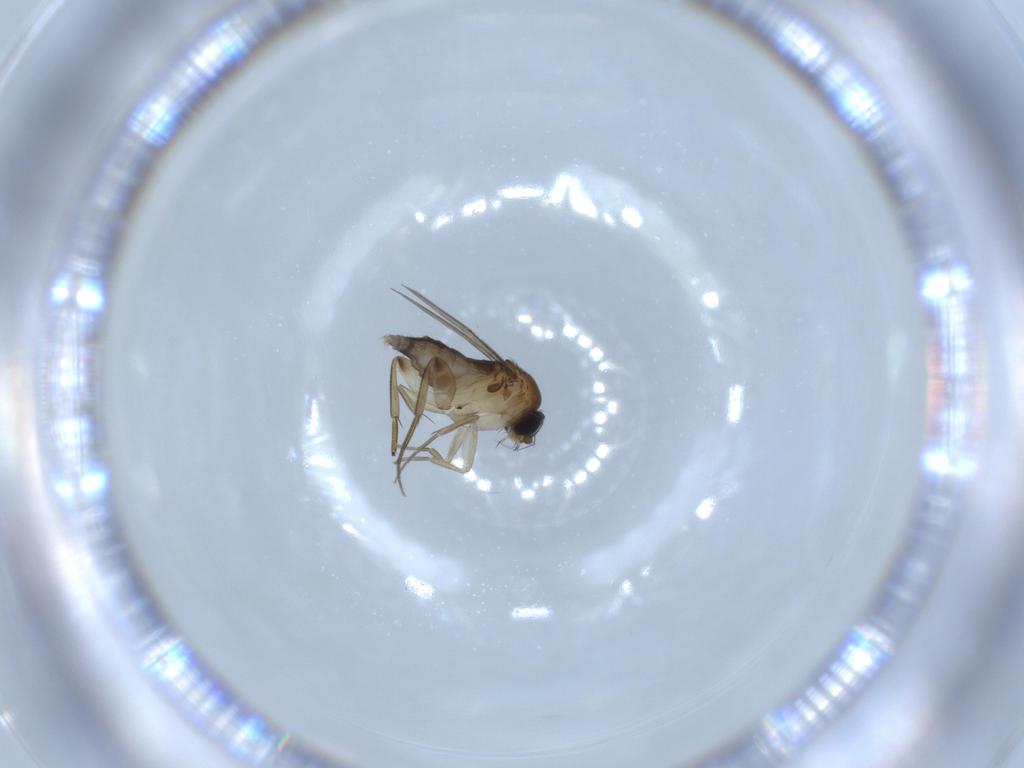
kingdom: Animalia
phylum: Arthropoda
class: Insecta
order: Diptera
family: Phoridae
